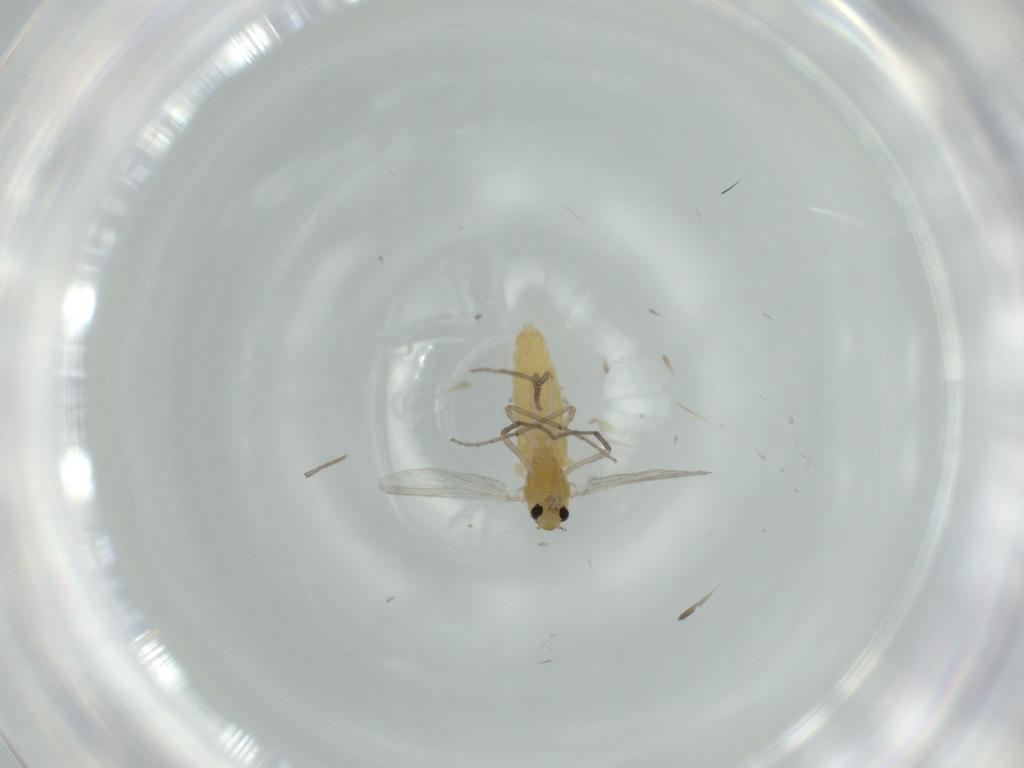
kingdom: Animalia
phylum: Arthropoda
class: Insecta
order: Diptera
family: Chironomidae
